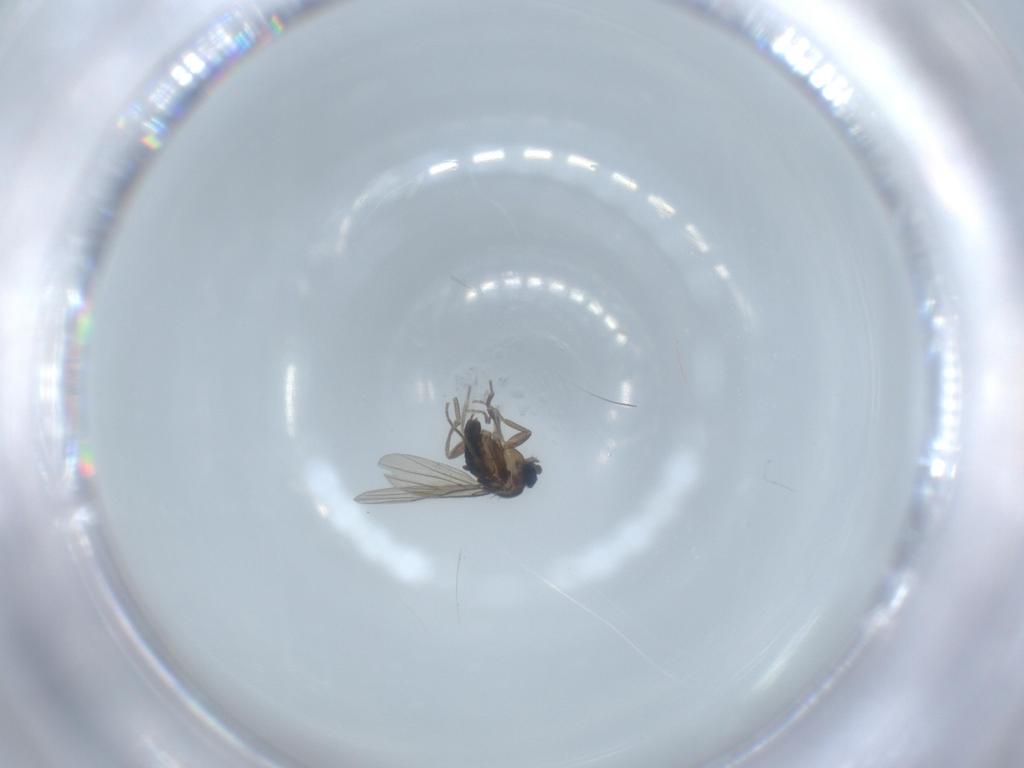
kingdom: Animalia
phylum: Arthropoda
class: Insecta
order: Diptera
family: Phoridae
